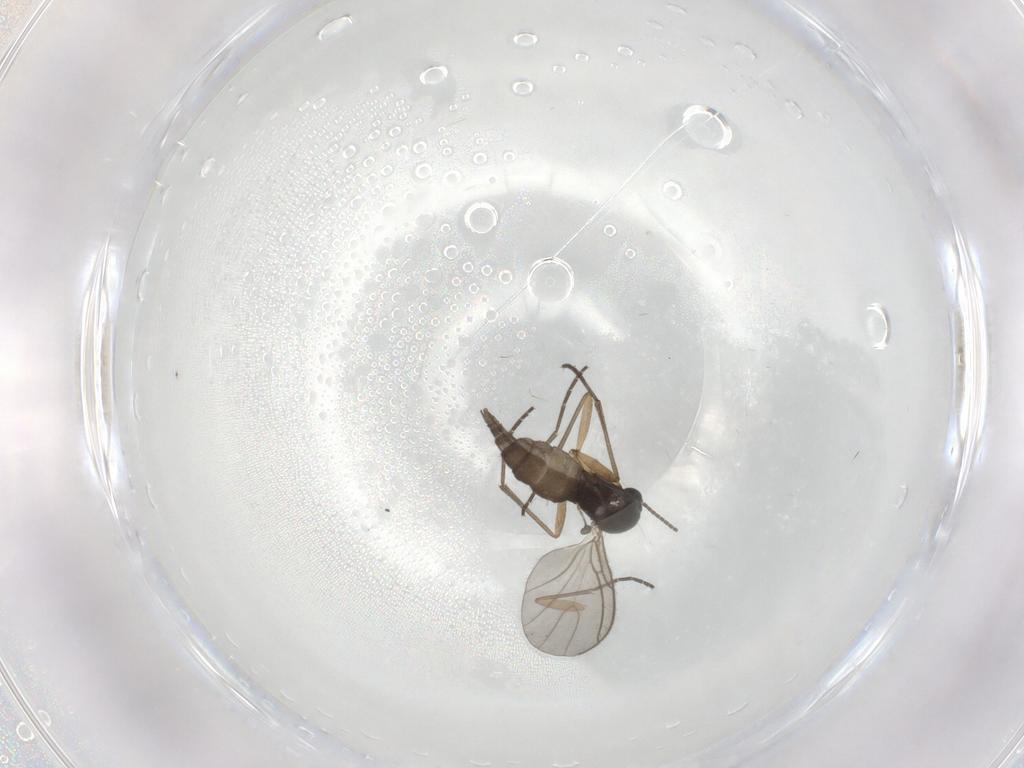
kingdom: Animalia
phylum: Arthropoda
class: Insecta
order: Diptera
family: Sciaridae
